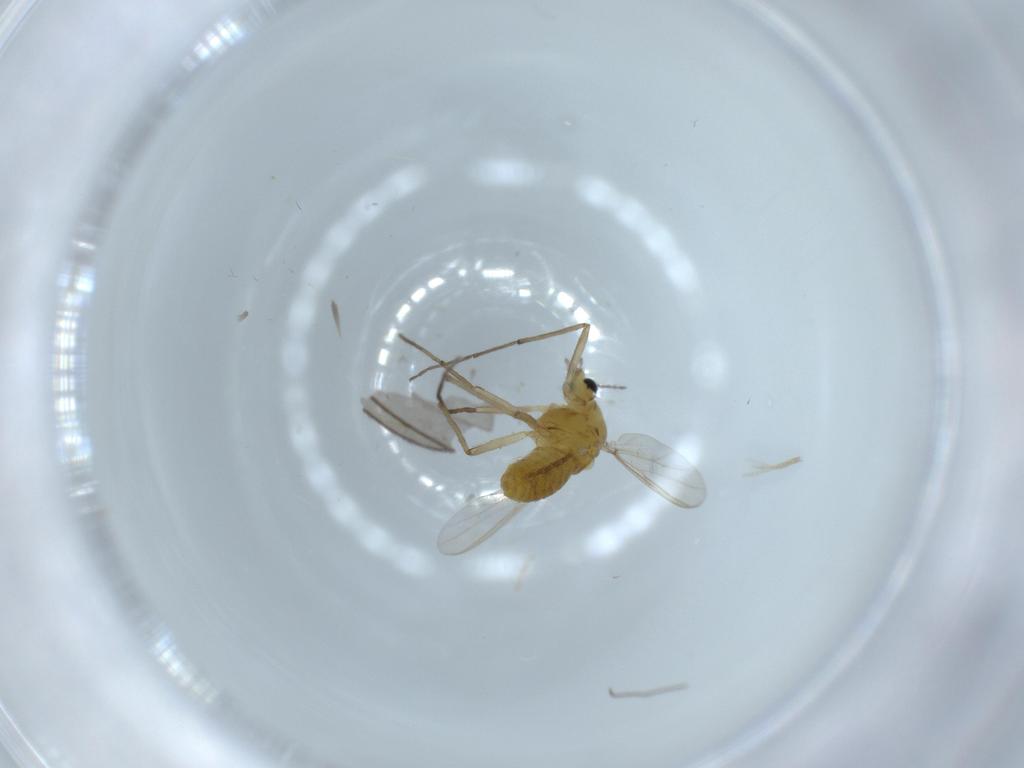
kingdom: Animalia
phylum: Arthropoda
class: Insecta
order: Diptera
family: Chironomidae
